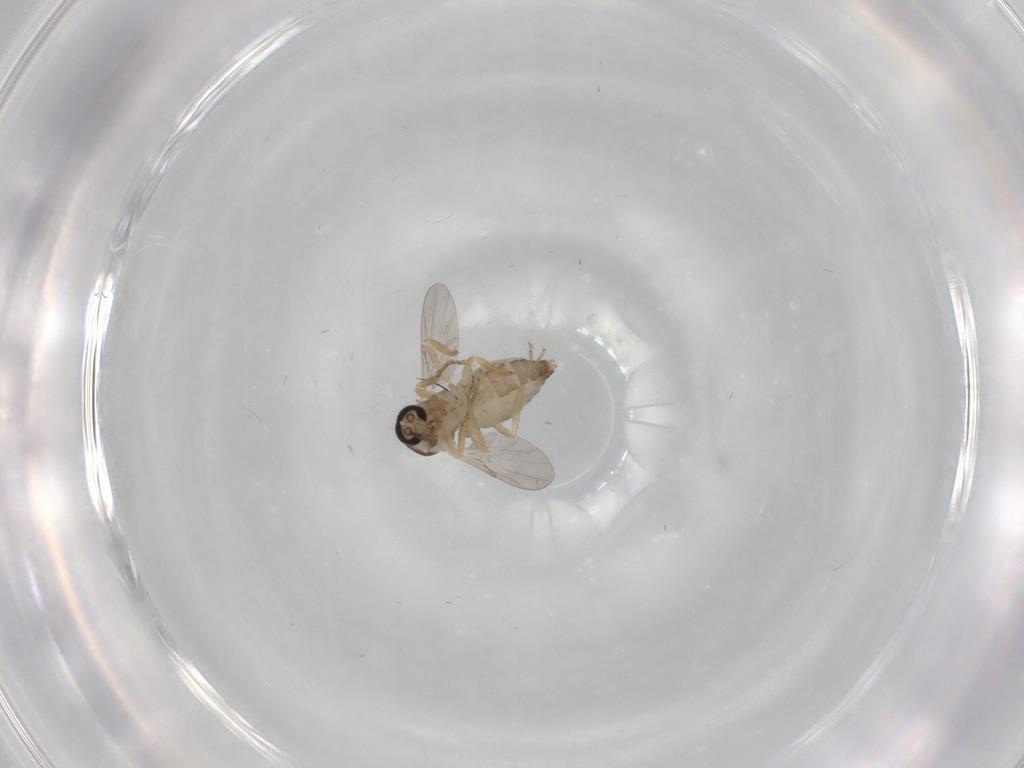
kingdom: Animalia
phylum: Arthropoda
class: Insecta
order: Diptera
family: Ceratopogonidae
